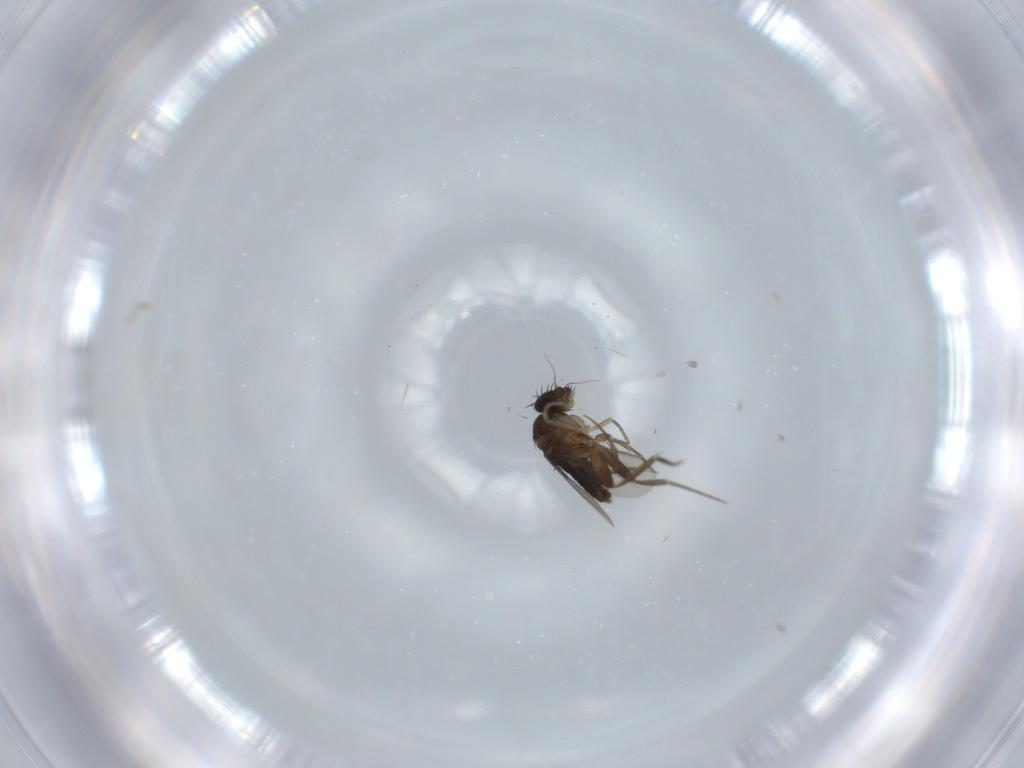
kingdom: Animalia
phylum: Arthropoda
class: Insecta
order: Diptera
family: Phoridae
